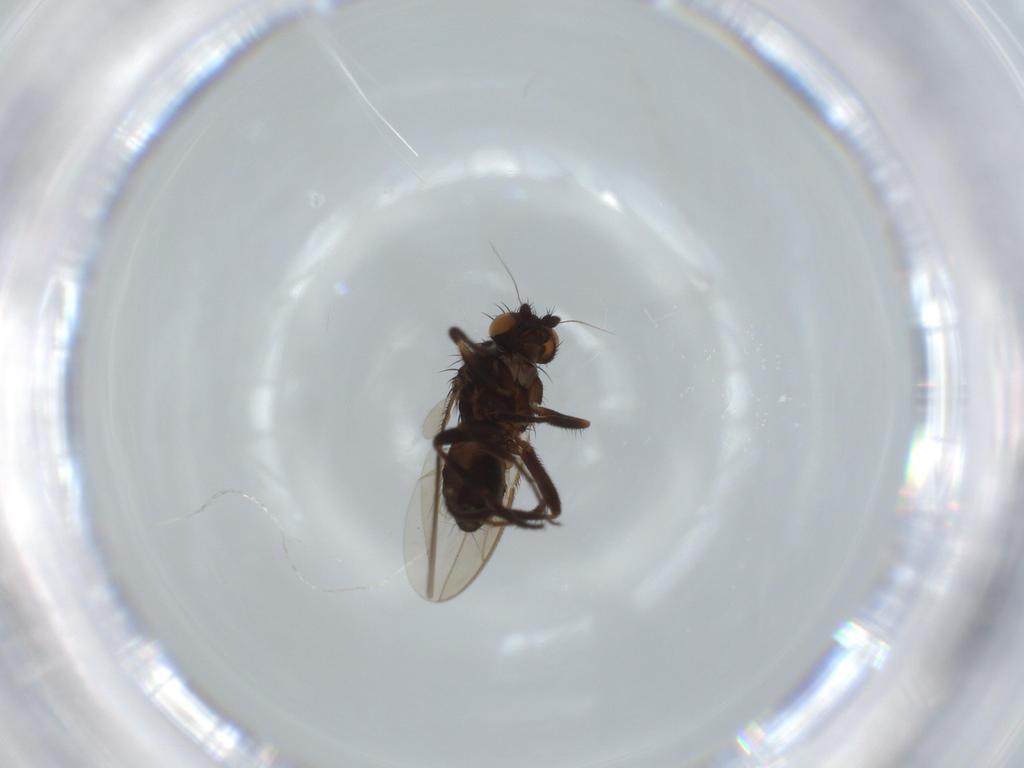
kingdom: Animalia
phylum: Arthropoda
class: Insecta
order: Diptera
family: Sphaeroceridae
